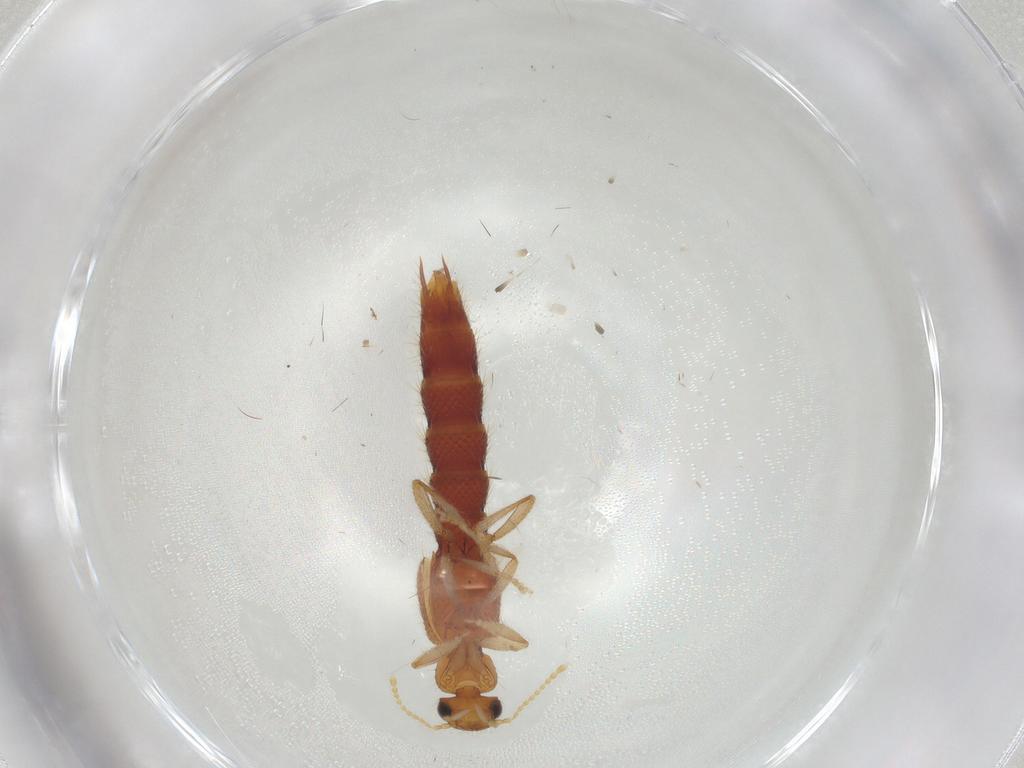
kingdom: Animalia
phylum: Arthropoda
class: Insecta
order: Coleoptera
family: Staphylinidae
